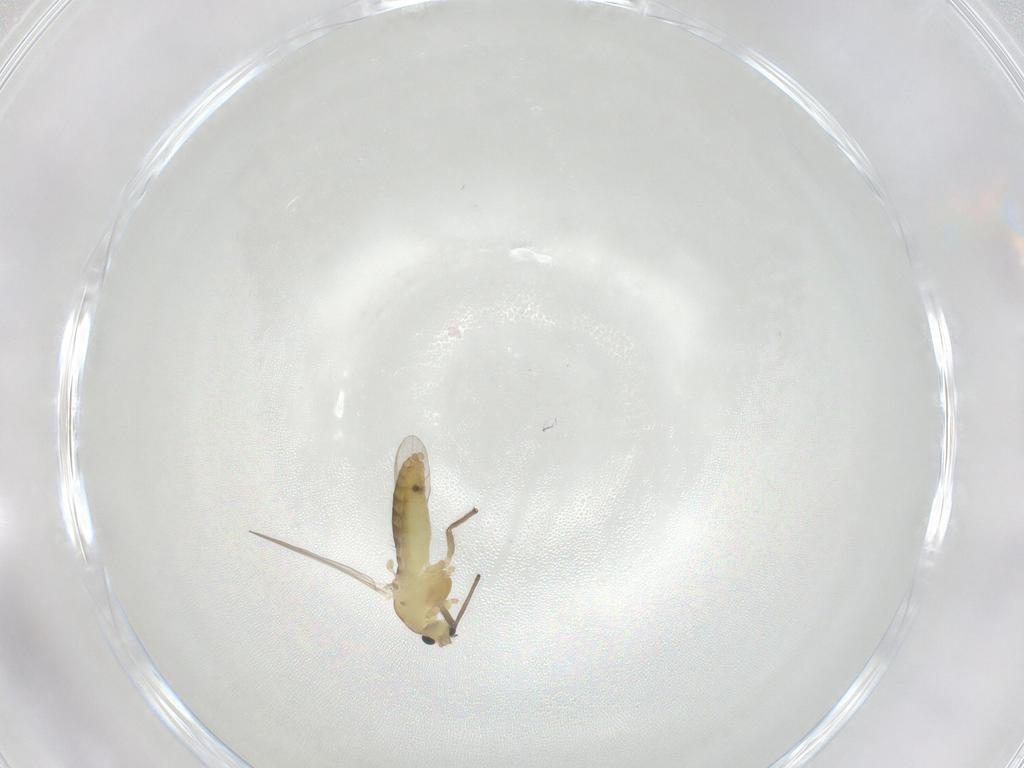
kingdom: Animalia
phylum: Arthropoda
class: Insecta
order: Diptera
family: Chironomidae
